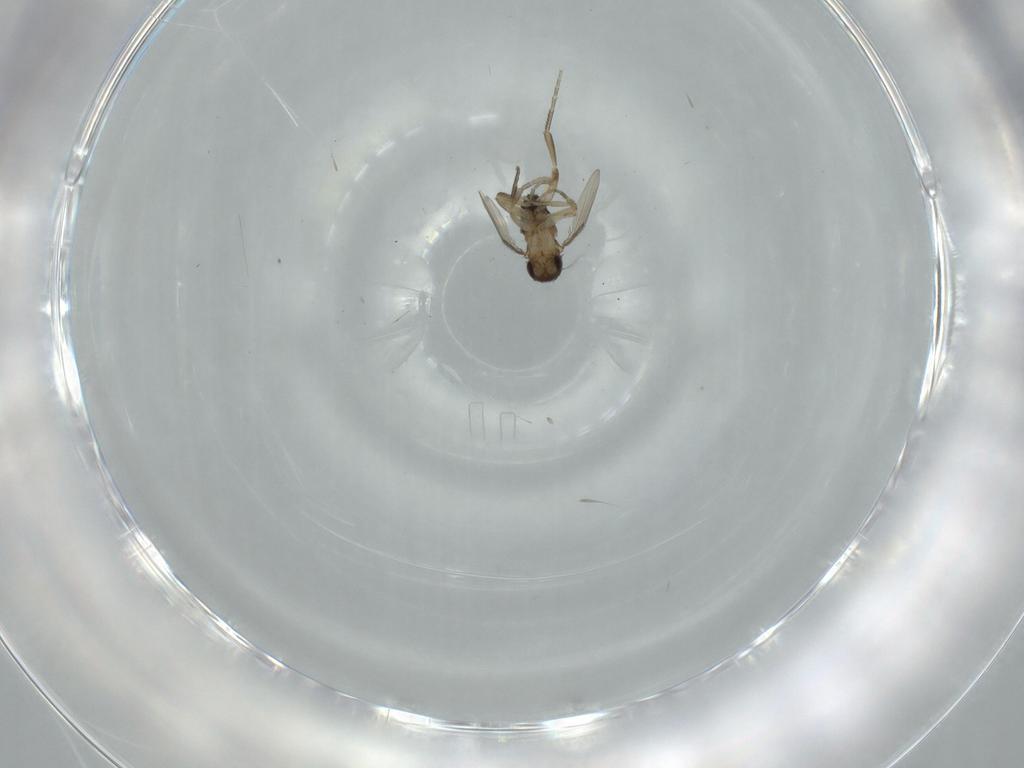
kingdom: Animalia
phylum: Arthropoda
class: Insecta
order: Diptera
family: Phoridae
